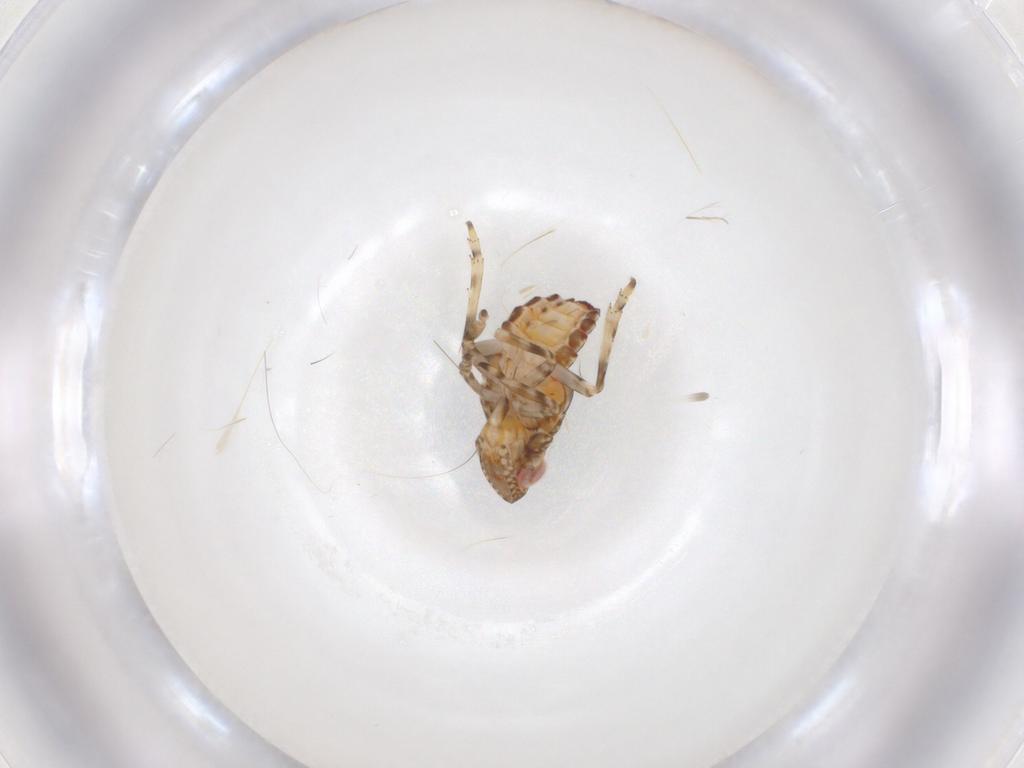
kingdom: Animalia
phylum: Arthropoda
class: Insecta
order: Hemiptera
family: Tropiduchidae
